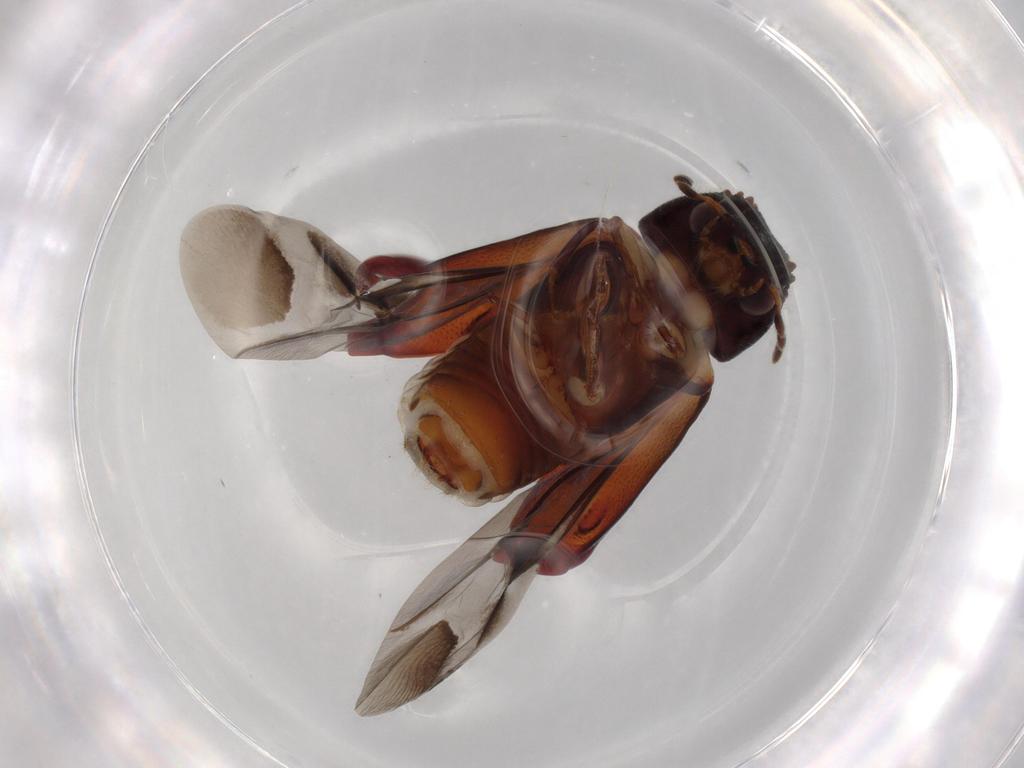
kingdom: Animalia
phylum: Arthropoda
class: Insecta
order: Coleoptera
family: Bostrichidae
